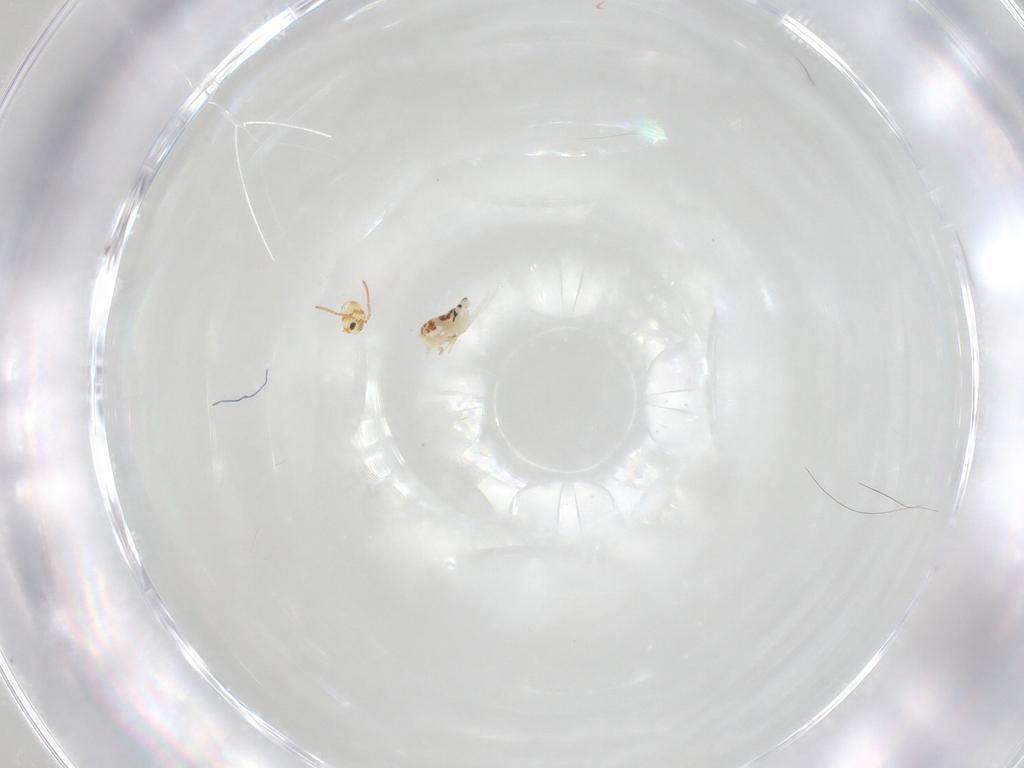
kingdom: Animalia
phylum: Arthropoda
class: Collembola
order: Symphypleona
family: Bourletiellidae
